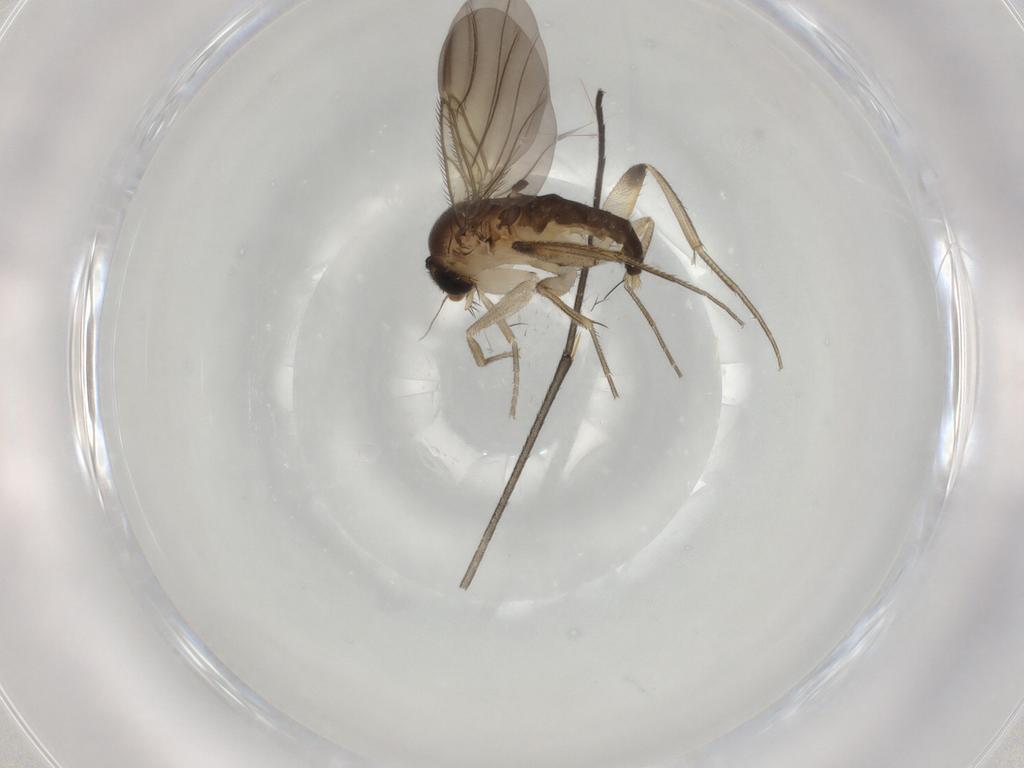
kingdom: Animalia
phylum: Arthropoda
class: Insecta
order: Diptera
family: Phoridae
